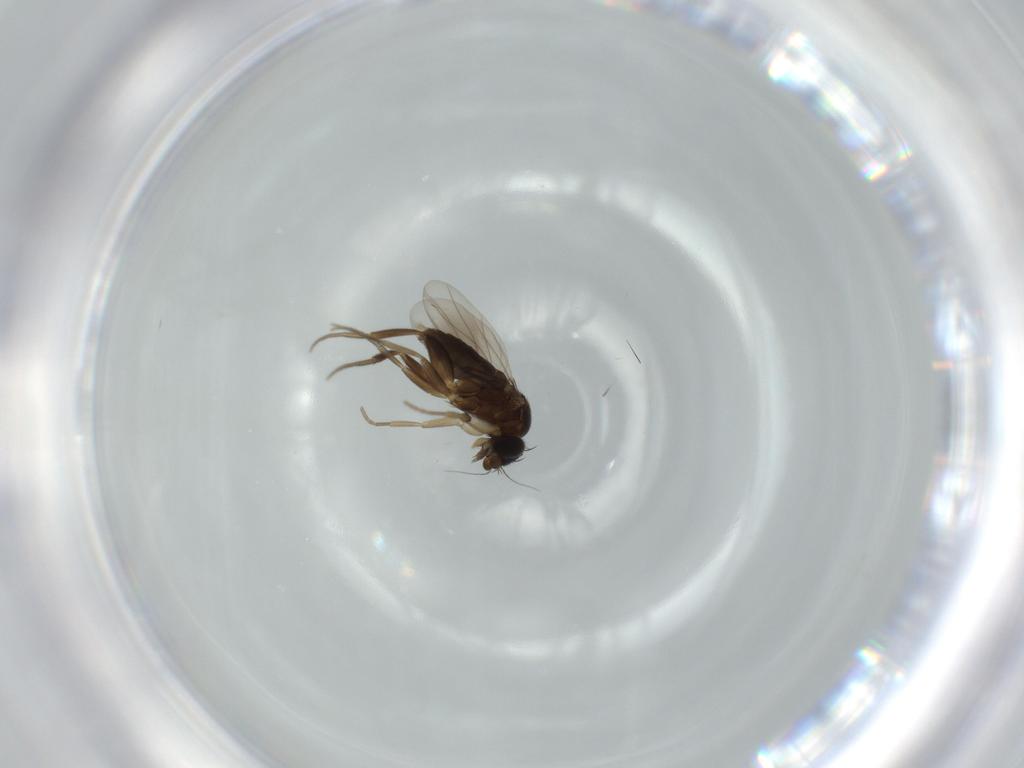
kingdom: Animalia
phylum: Arthropoda
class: Insecta
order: Diptera
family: Phoridae
